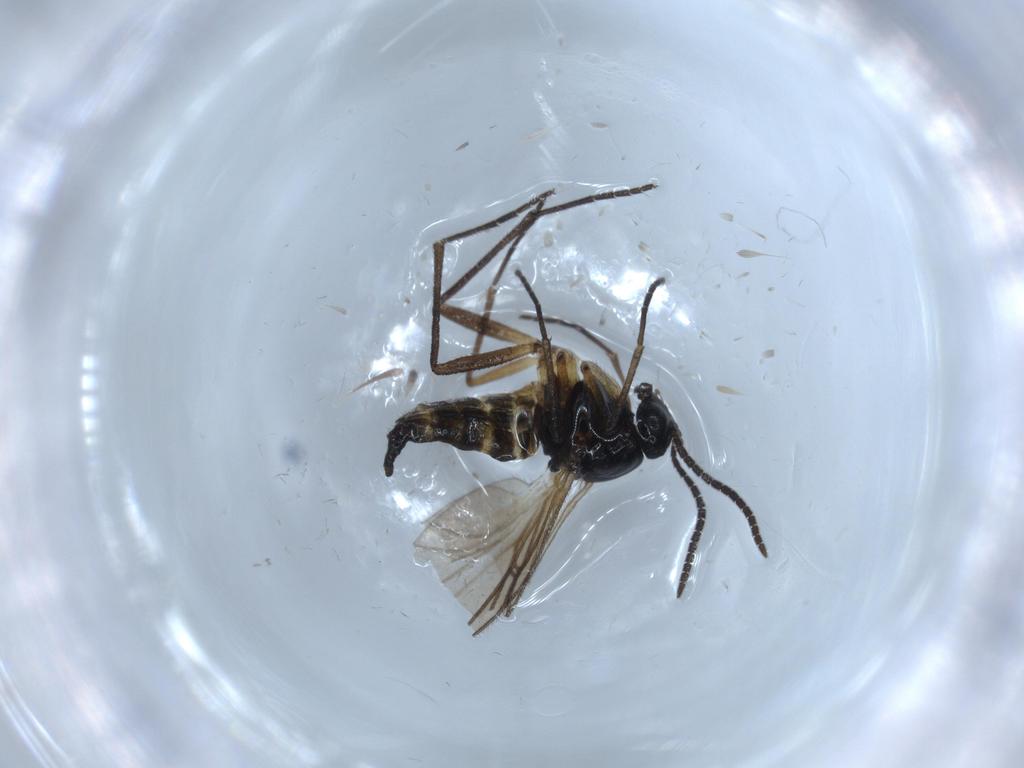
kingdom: Animalia
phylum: Arthropoda
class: Insecta
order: Diptera
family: Sciaridae
